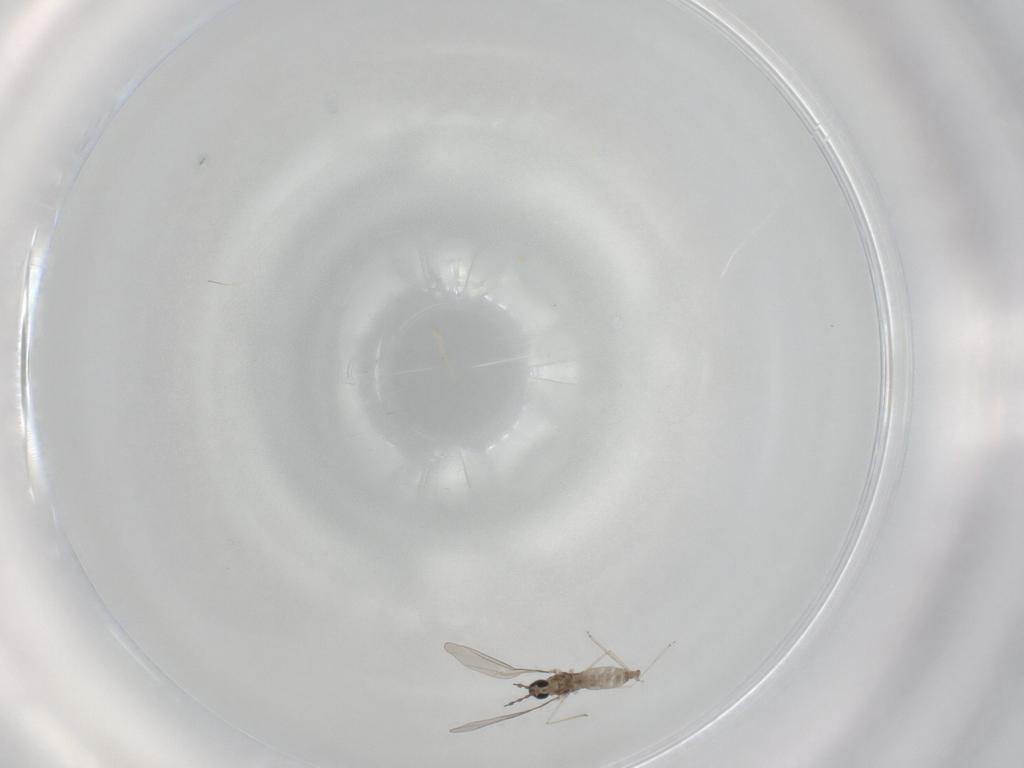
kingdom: Animalia
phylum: Arthropoda
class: Insecta
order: Diptera
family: Cecidomyiidae
